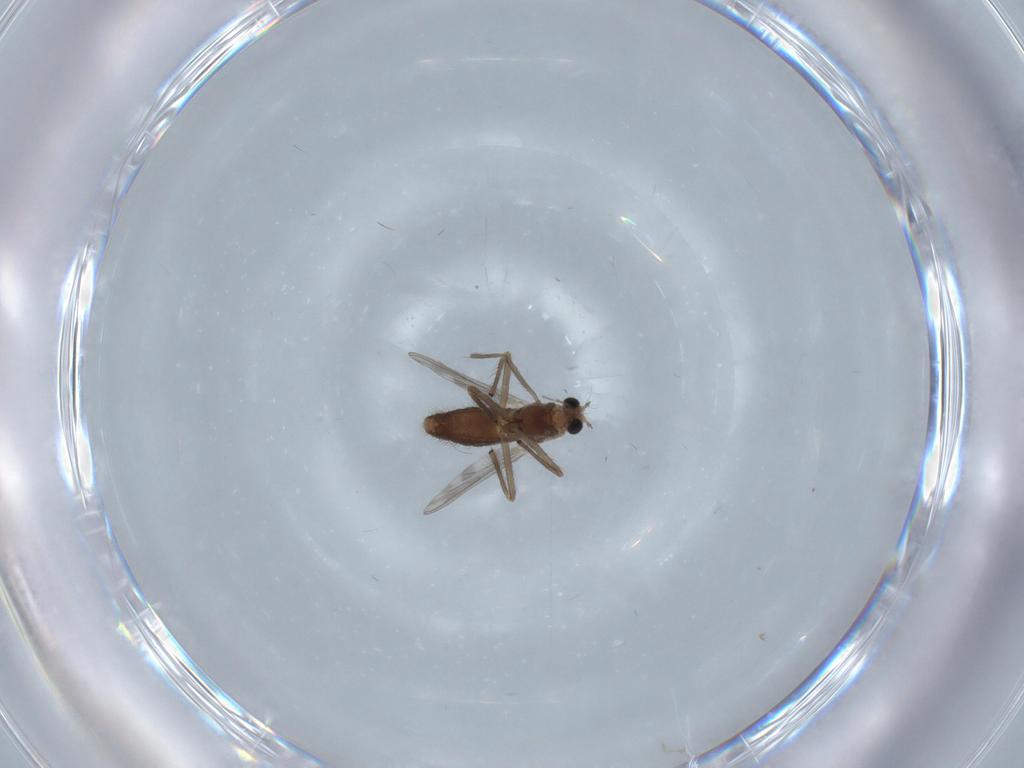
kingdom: Animalia
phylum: Arthropoda
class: Insecta
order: Diptera
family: Chironomidae
